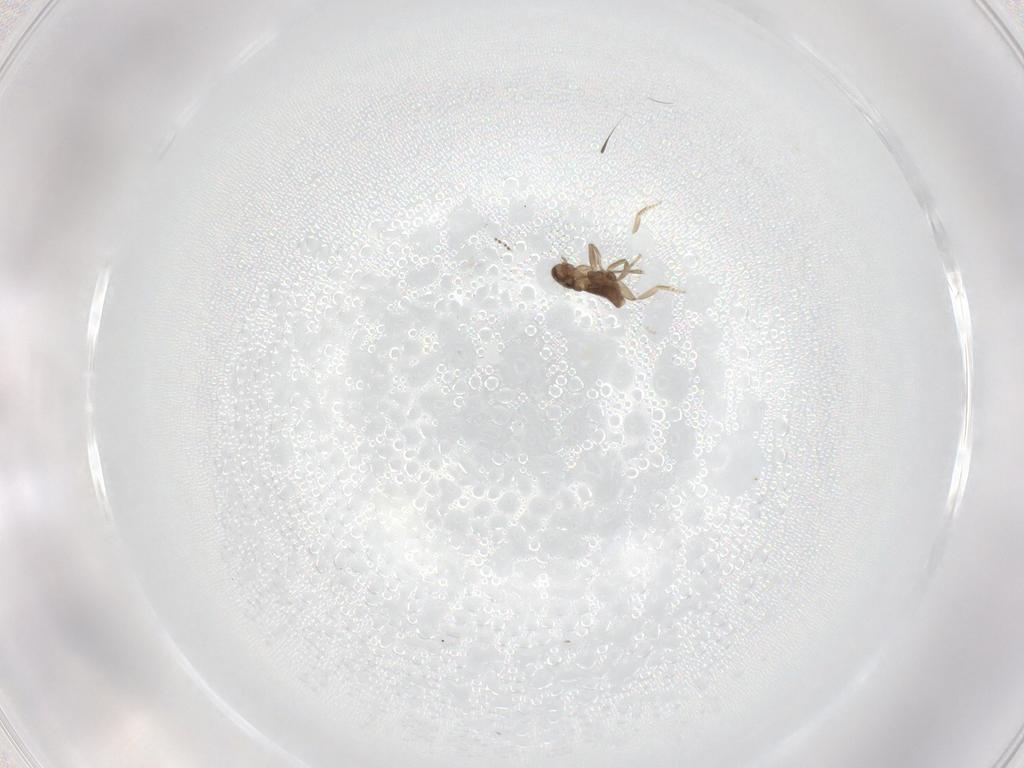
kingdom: Animalia
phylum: Arthropoda
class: Insecta
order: Diptera
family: Phoridae
